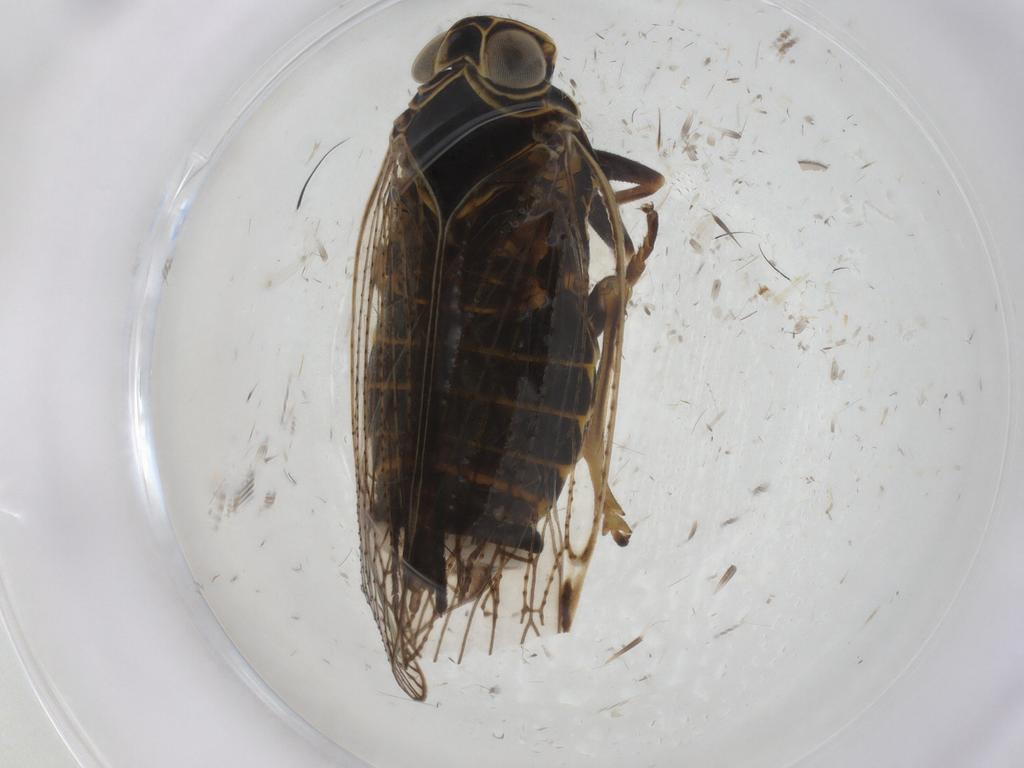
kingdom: Animalia
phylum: Arthropoda
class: Insecta
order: Hemiptera
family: Cixiidae
